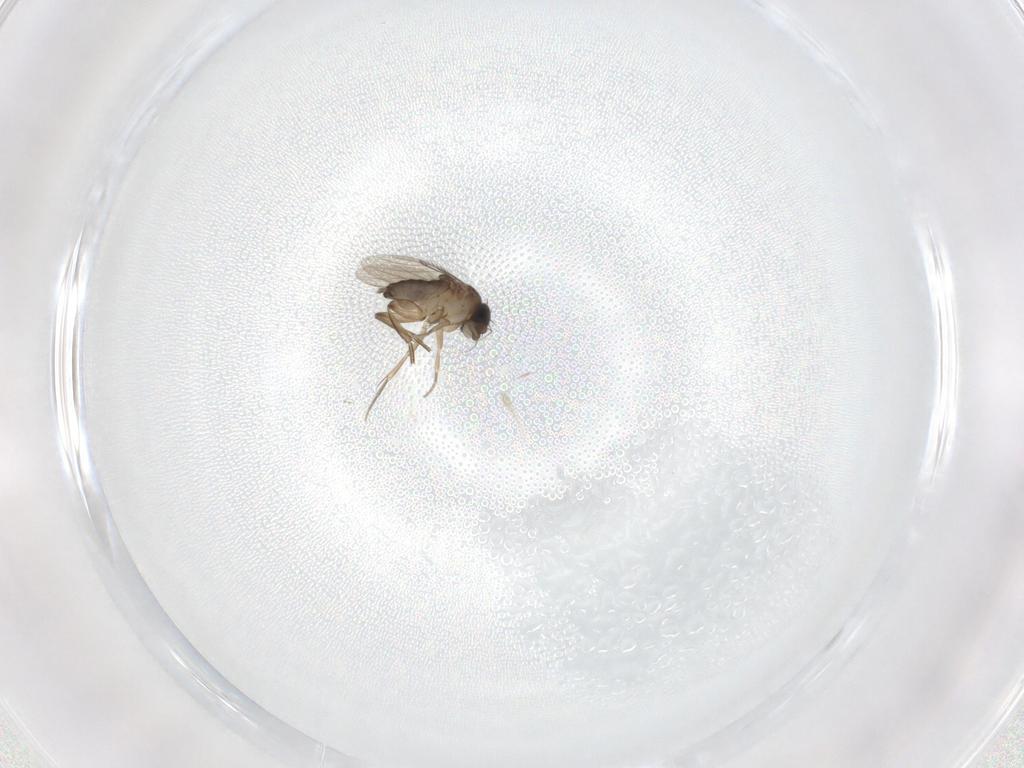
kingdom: Animalia
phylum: Arthropoda
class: Insecta
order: Diptera
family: Phoridae
